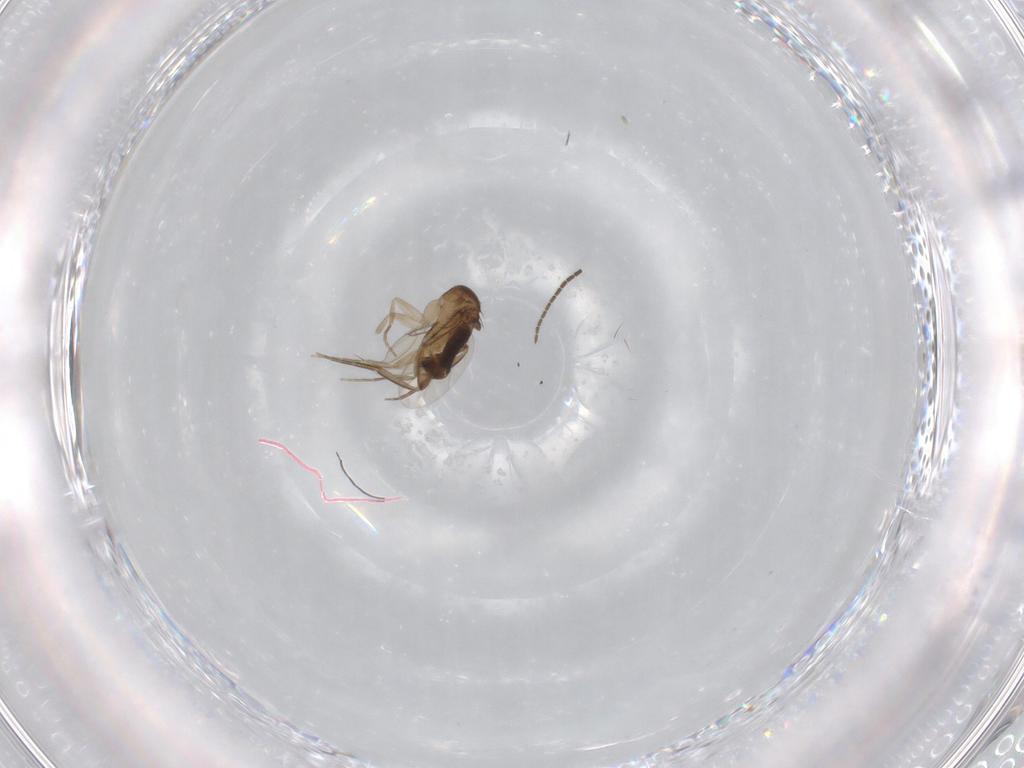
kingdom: Animalia
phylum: Arthropoda
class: Insecta
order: Diptera
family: Phoridae
